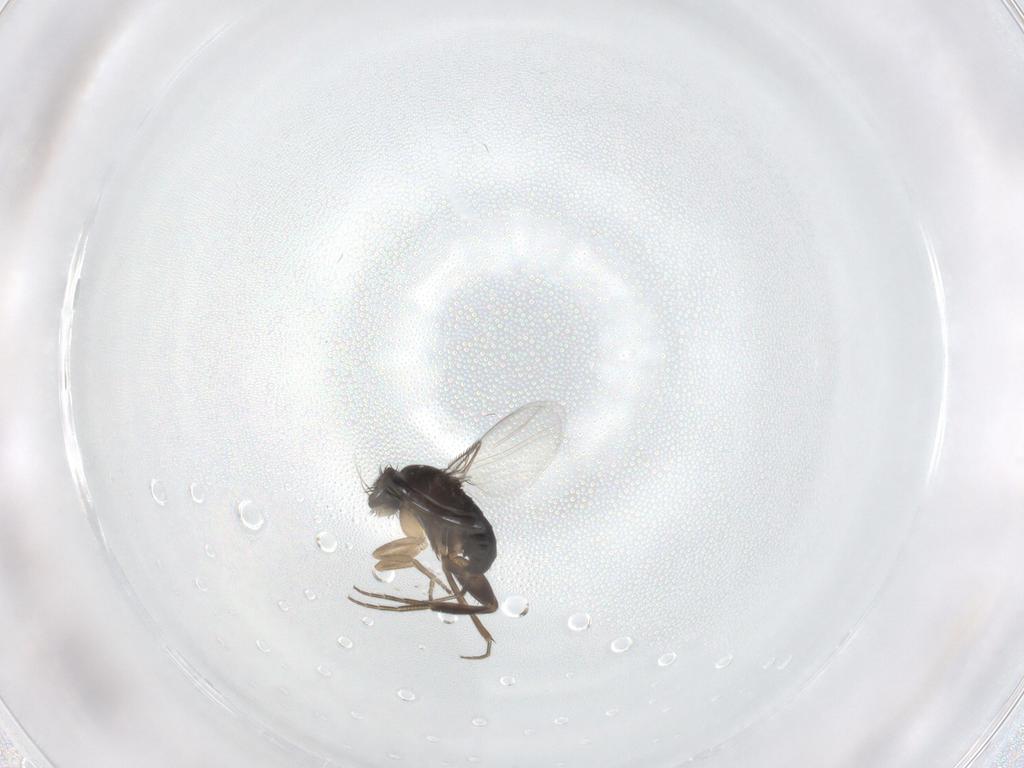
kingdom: Animalia
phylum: Arthropoda
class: Insecta
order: Diptera
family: Phoridae
